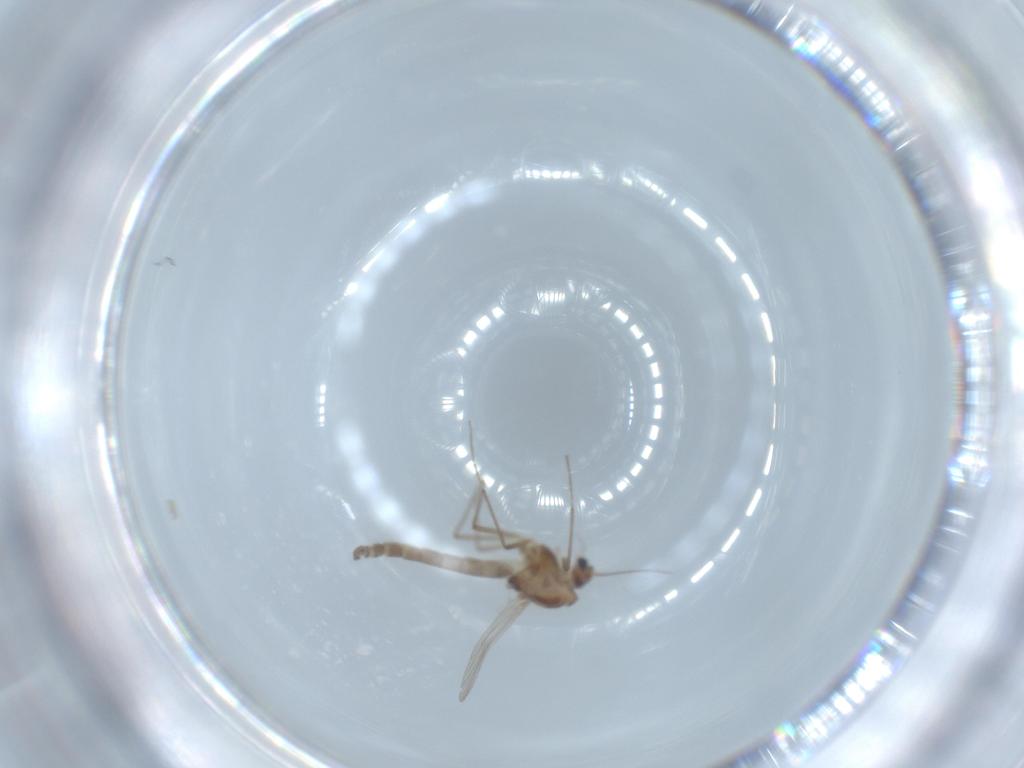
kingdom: Animalia
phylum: Arthropoda
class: Insecta
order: Diptera
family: Chironomidae
